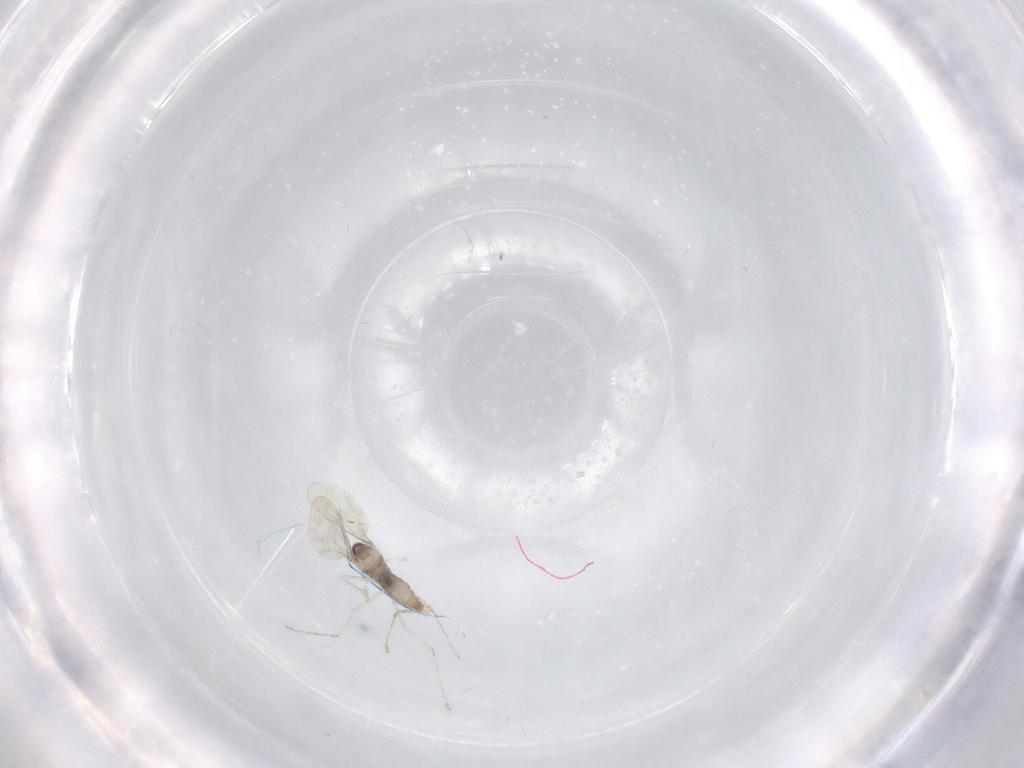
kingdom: Animalia
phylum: Arthropoda
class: Insecta
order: Diptera
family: Cecidomyiidae
